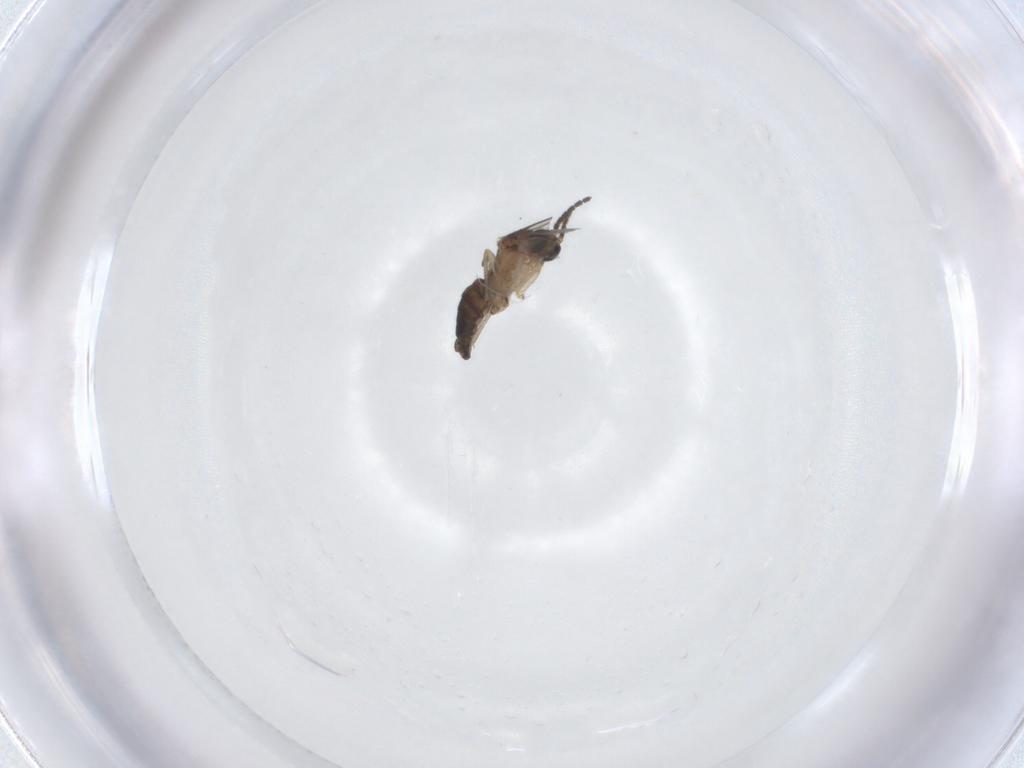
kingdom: Animalia
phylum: Arthropoda
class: Insecta
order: Diptera
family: Sciaridae
